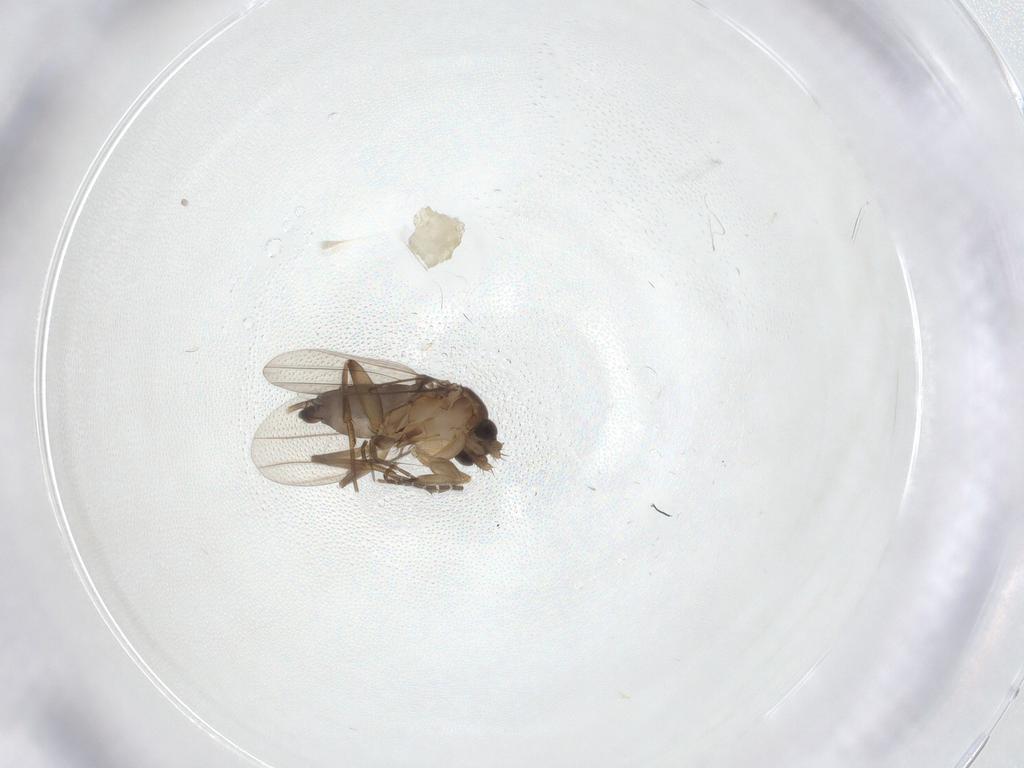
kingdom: Animalia
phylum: Arthropoda
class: Insecta
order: Diptera
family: Phoridae
